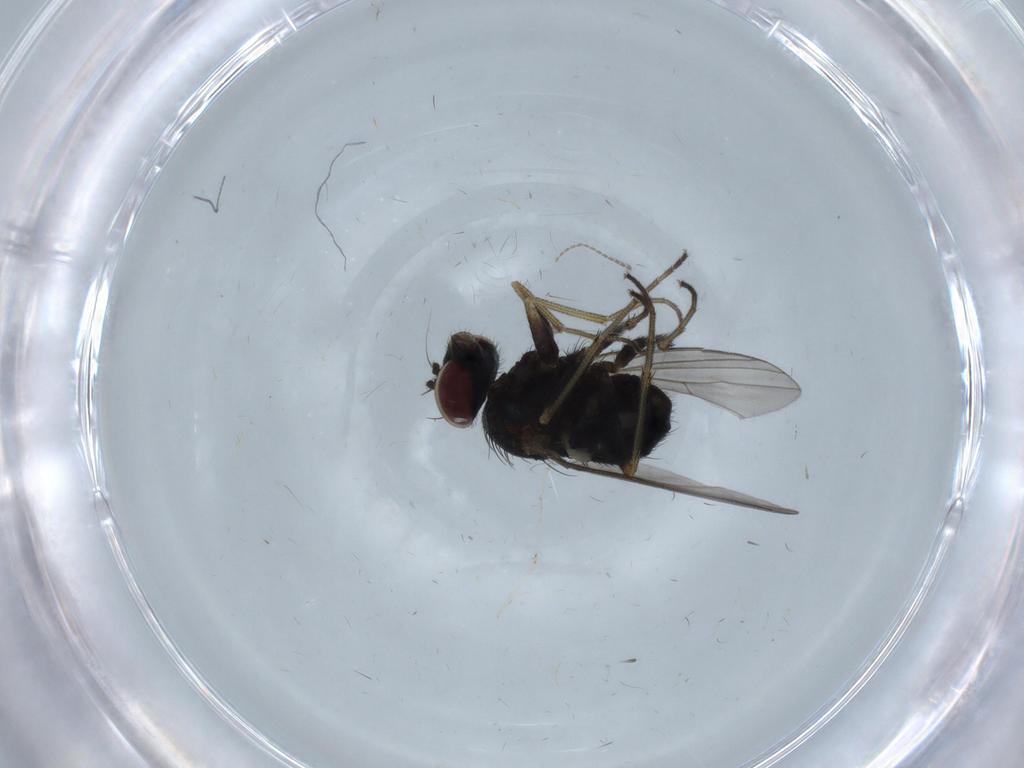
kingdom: Animalia
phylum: Arthropoda
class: Insecta
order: Diptera
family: Dolichopodidae
